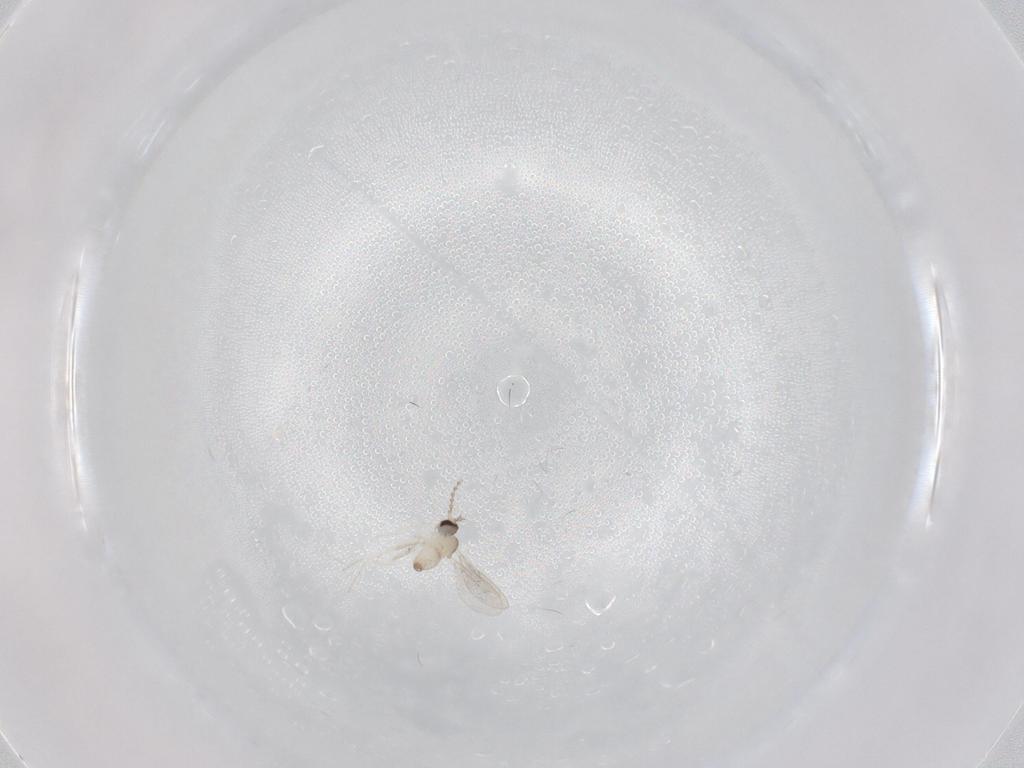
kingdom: Animalia
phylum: Arthropoda
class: Insecta
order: Diptera
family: Cecidomyiidae
